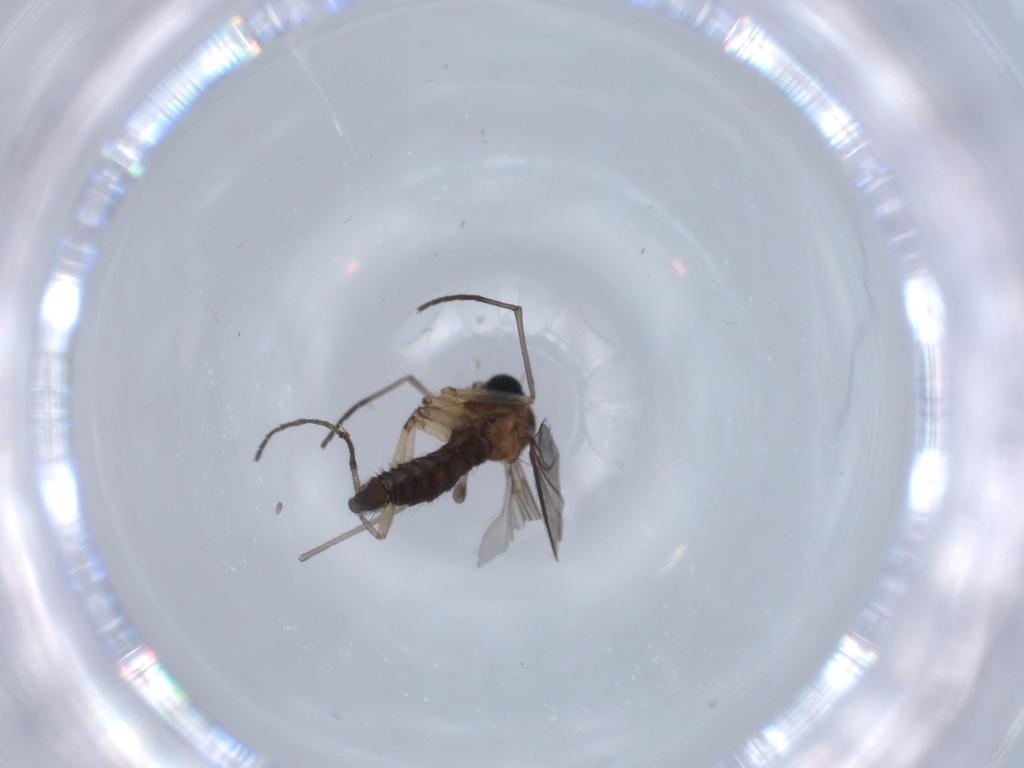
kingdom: Animalia
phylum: Arthropoda
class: Insecta
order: Diptera
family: Sciaridae
